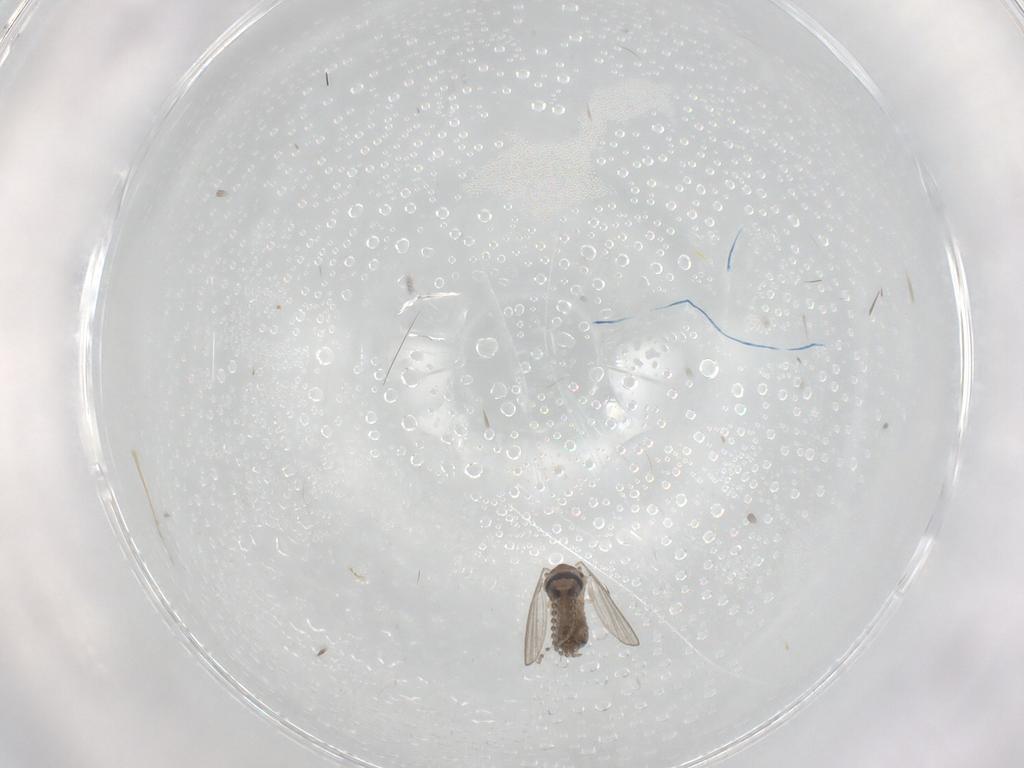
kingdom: Animalia
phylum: Arthropoda
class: Insecta
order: Diptera
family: Psychodidae
